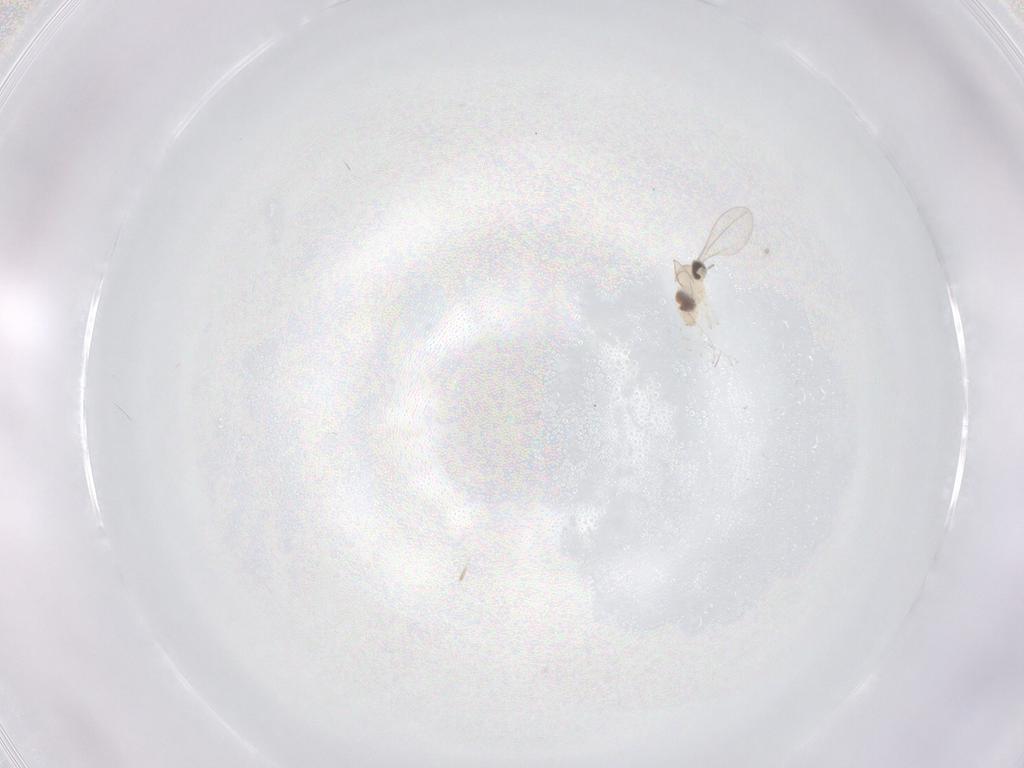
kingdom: Animalia
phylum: Arthropoda
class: Insecta
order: Diptera
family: Cecidomyiidae
